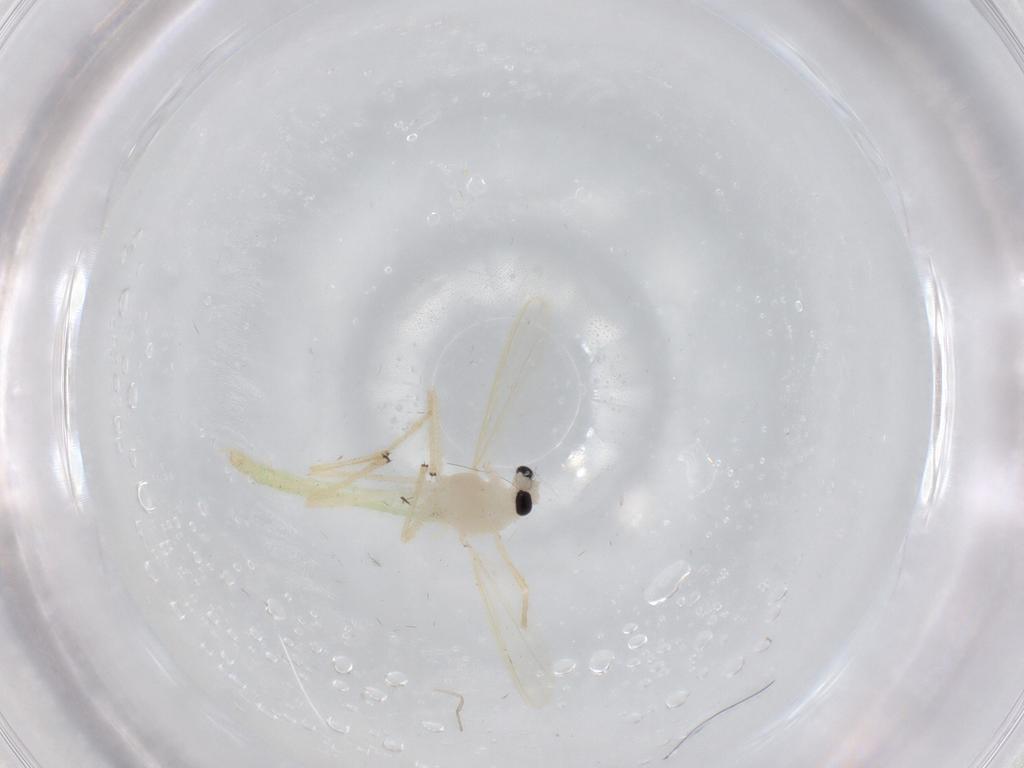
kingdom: Animalia
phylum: Arthropoda
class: Insecta
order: Diptera
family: Chironomidae
